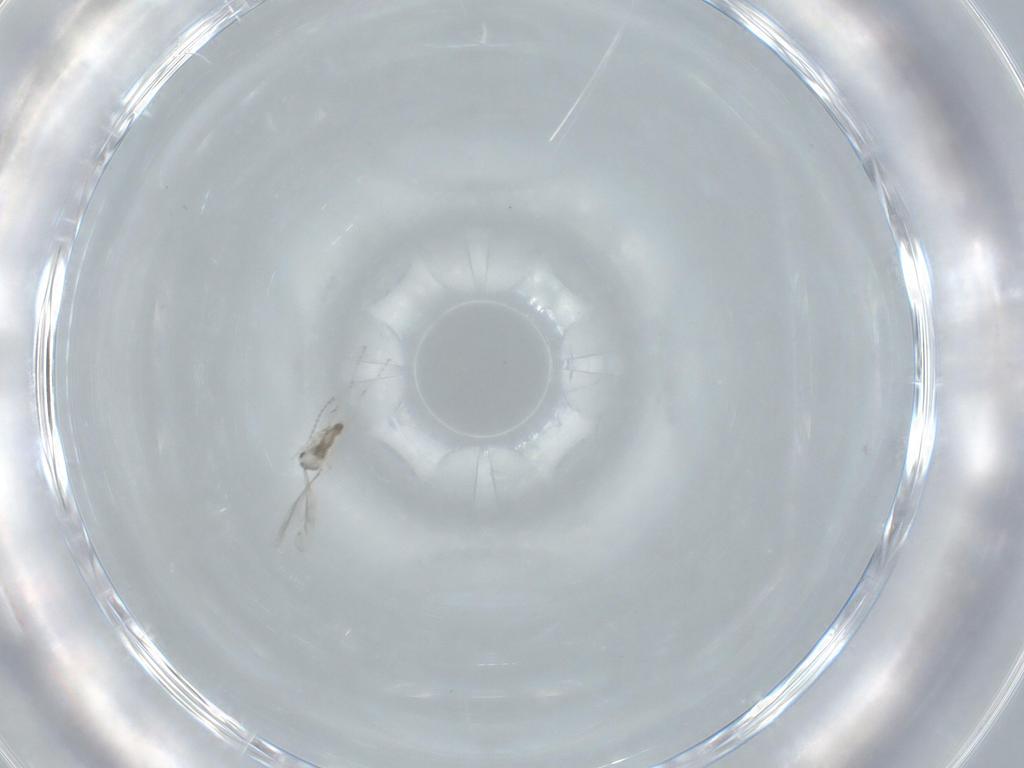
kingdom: Animalia
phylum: Arthropoda
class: Insecta
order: Diptera
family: Cecidomyiidae
